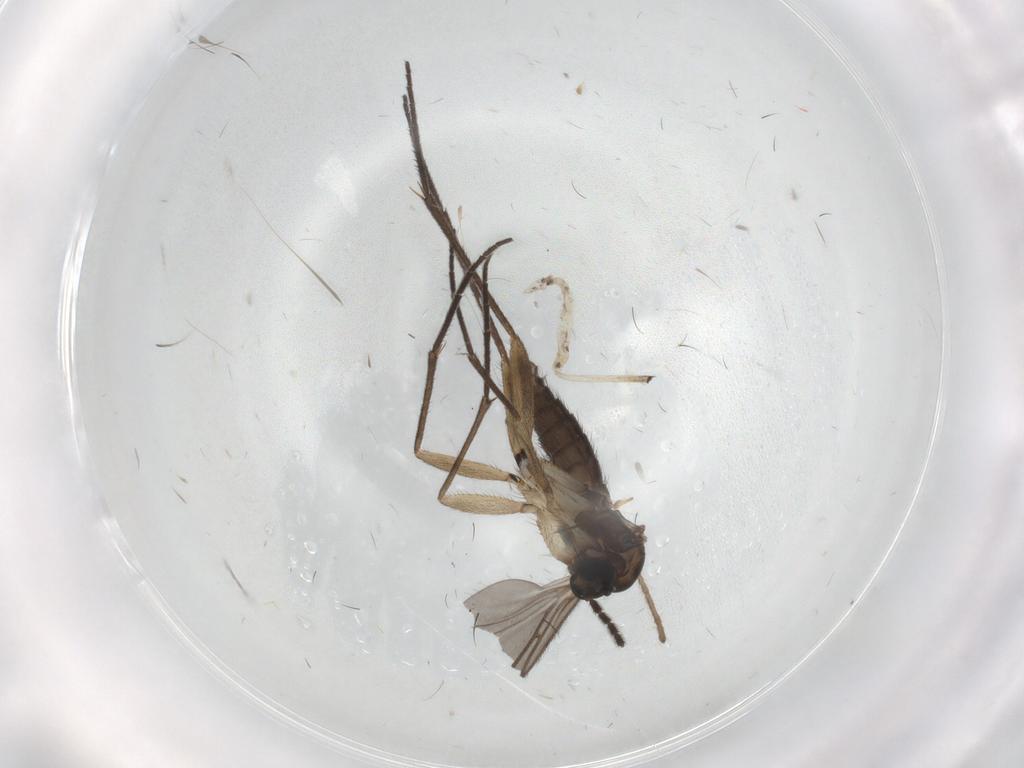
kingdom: Animalia
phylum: Arthropoda
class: Insecta
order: Diptera
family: Sciaridae
